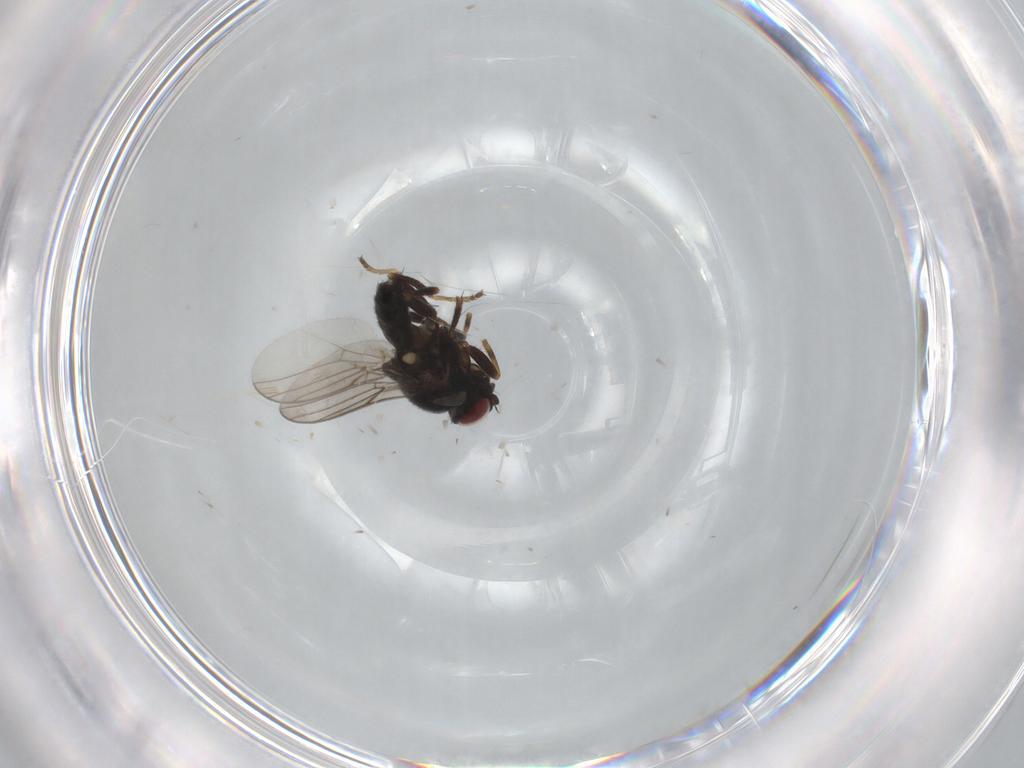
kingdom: Animalia
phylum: Arthropoda
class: Insecta
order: Diptera
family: Chloropidae
